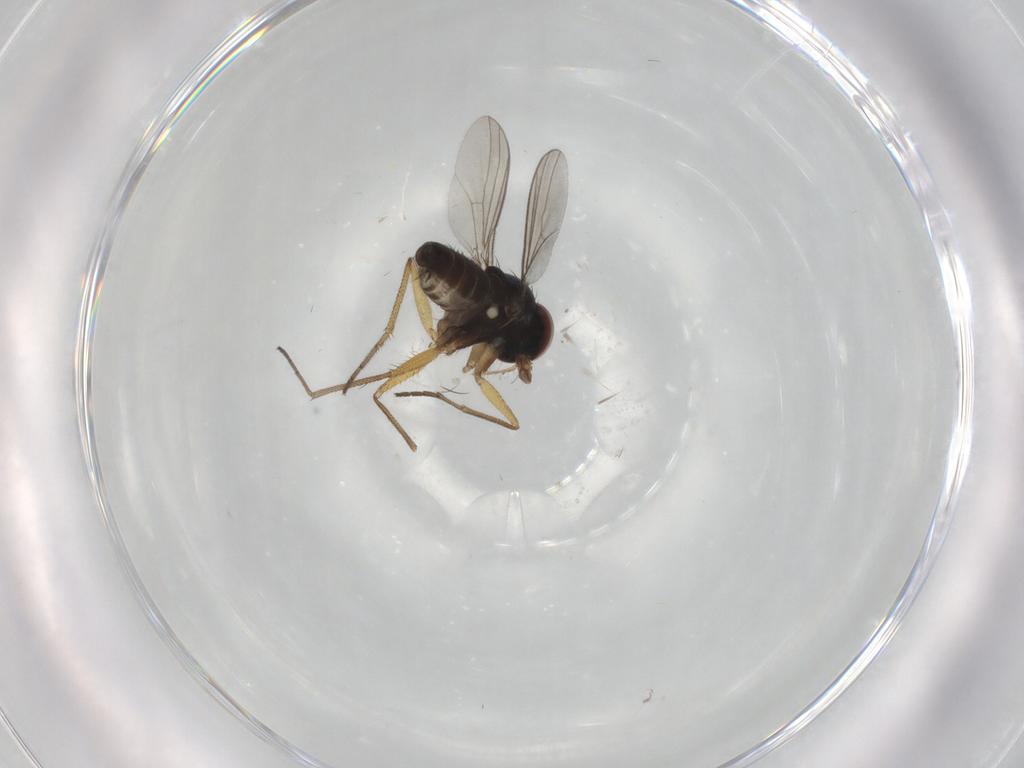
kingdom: Animalia
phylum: Arthropoda
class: Insecta
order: Diptera
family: Dolichopodidae
